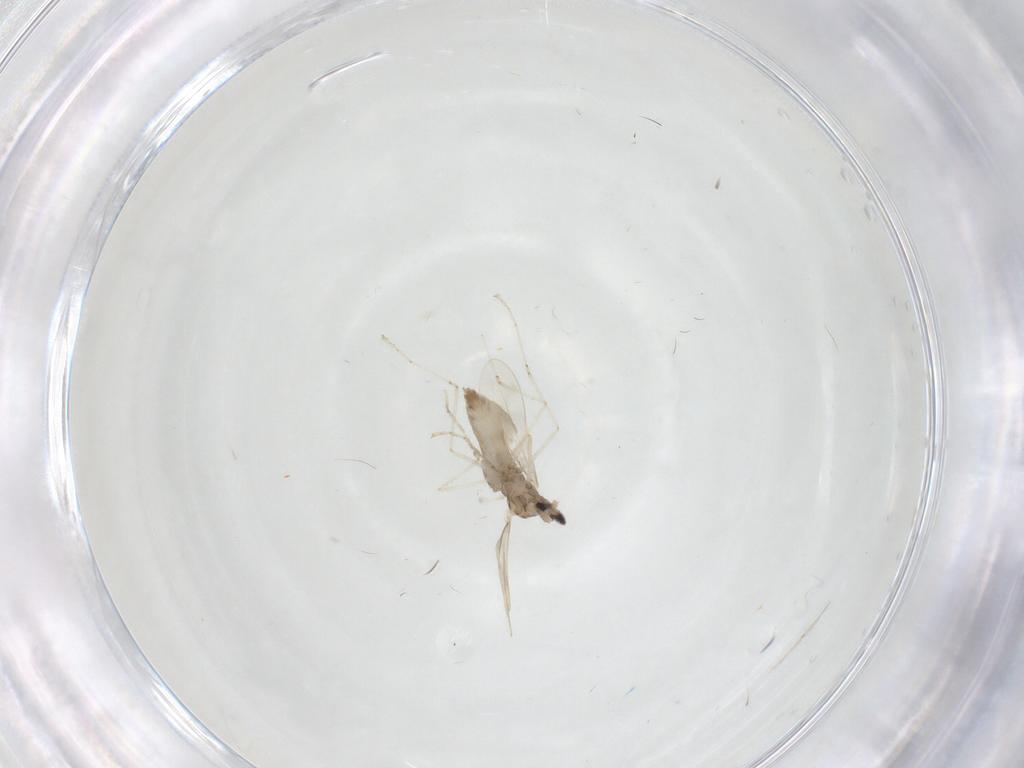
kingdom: Animalia
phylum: Arthropoda
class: Insecta
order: Diptera
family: Cecidomyiidae
